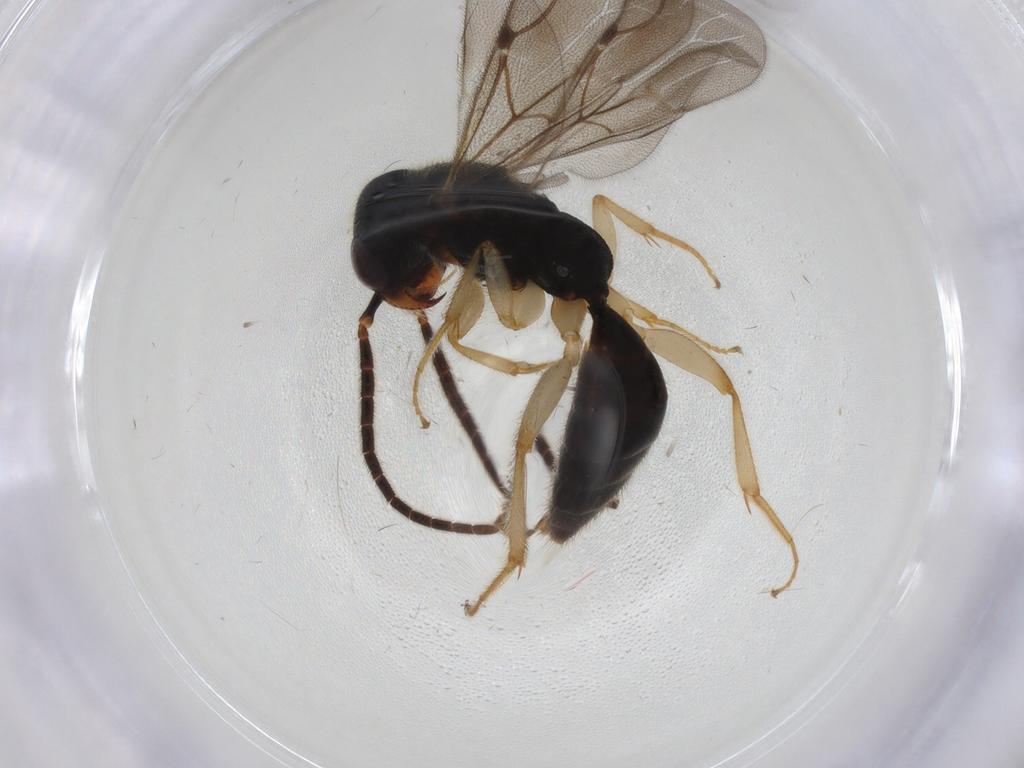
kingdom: Animalia
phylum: Arthropoda
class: Insecta
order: Hymenoptera
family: Bethylidae
